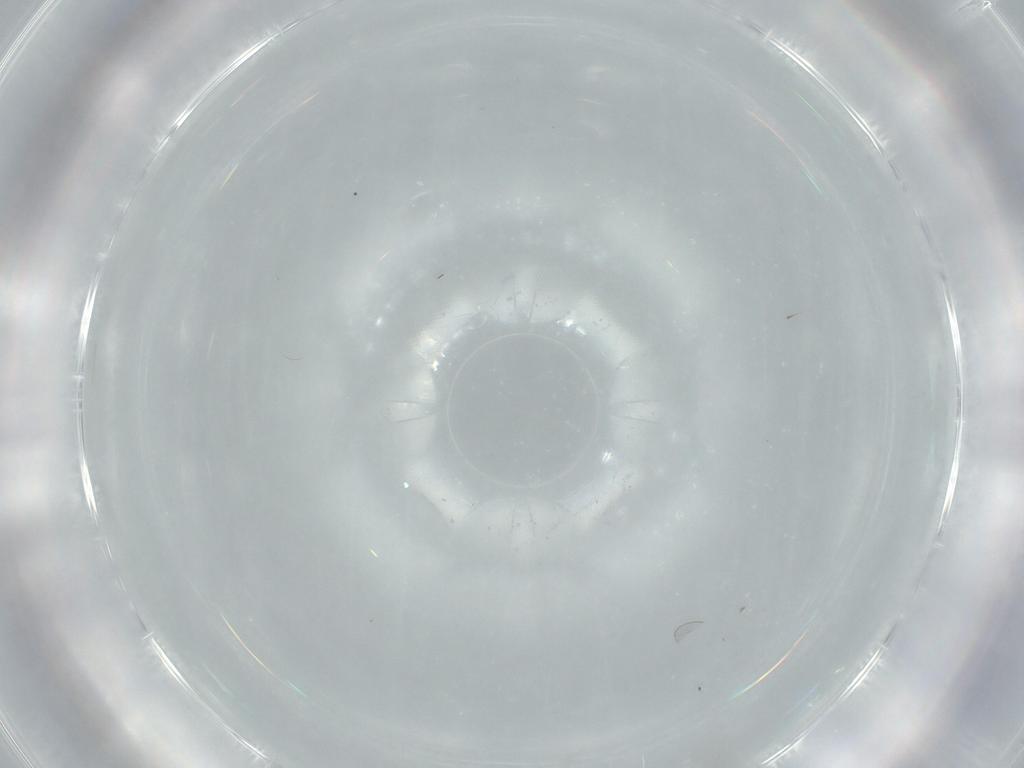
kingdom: Animalia
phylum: Arthropoda
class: Insecta
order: Diptera
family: Cecidomyiidae
